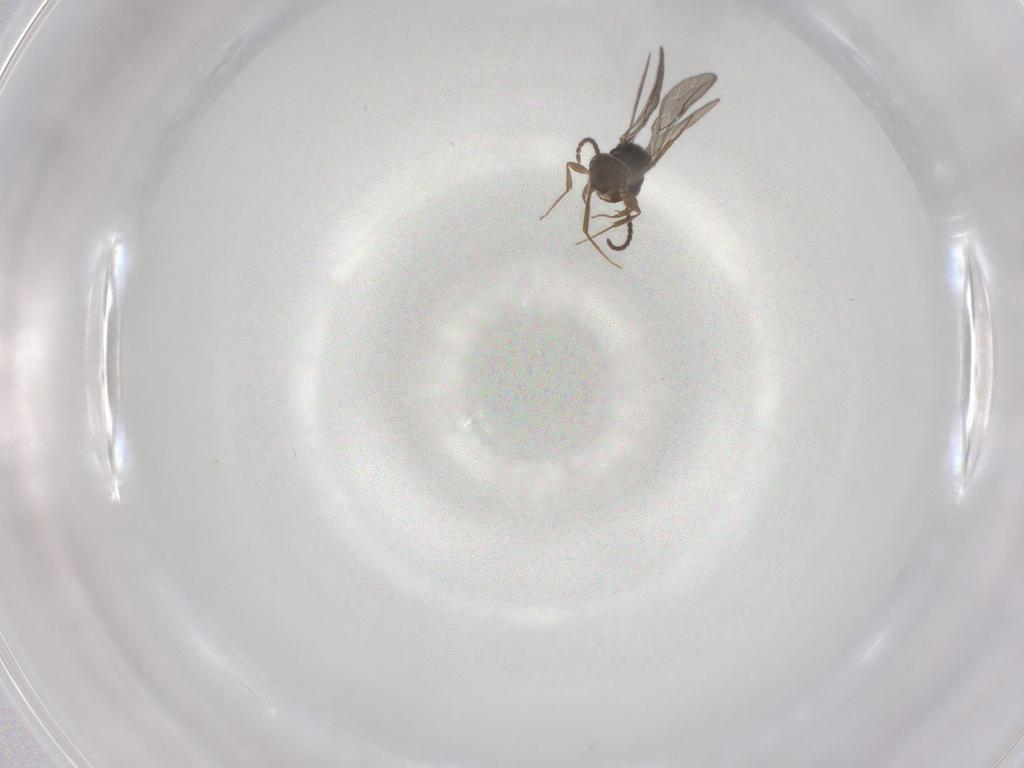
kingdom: Animalia
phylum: Arthropoda
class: Insecta
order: Hymenoptera
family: Bethylidae
